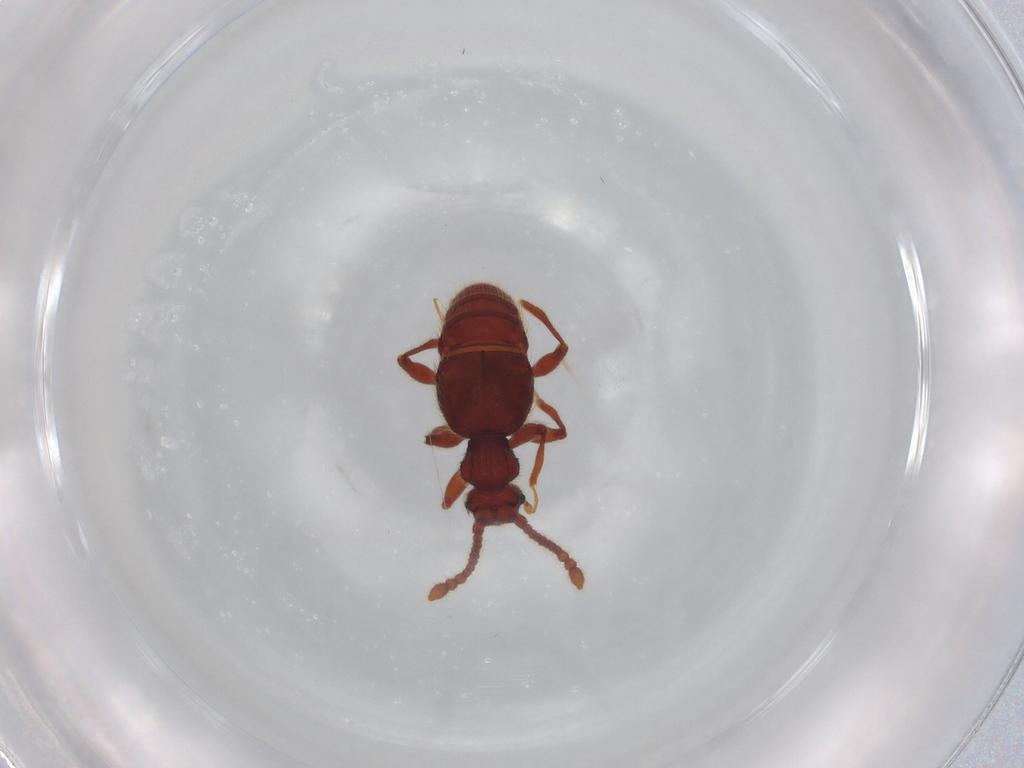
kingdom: Animalia
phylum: Arthropoda
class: Insecta
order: Coleoptera
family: Staphylinidae
